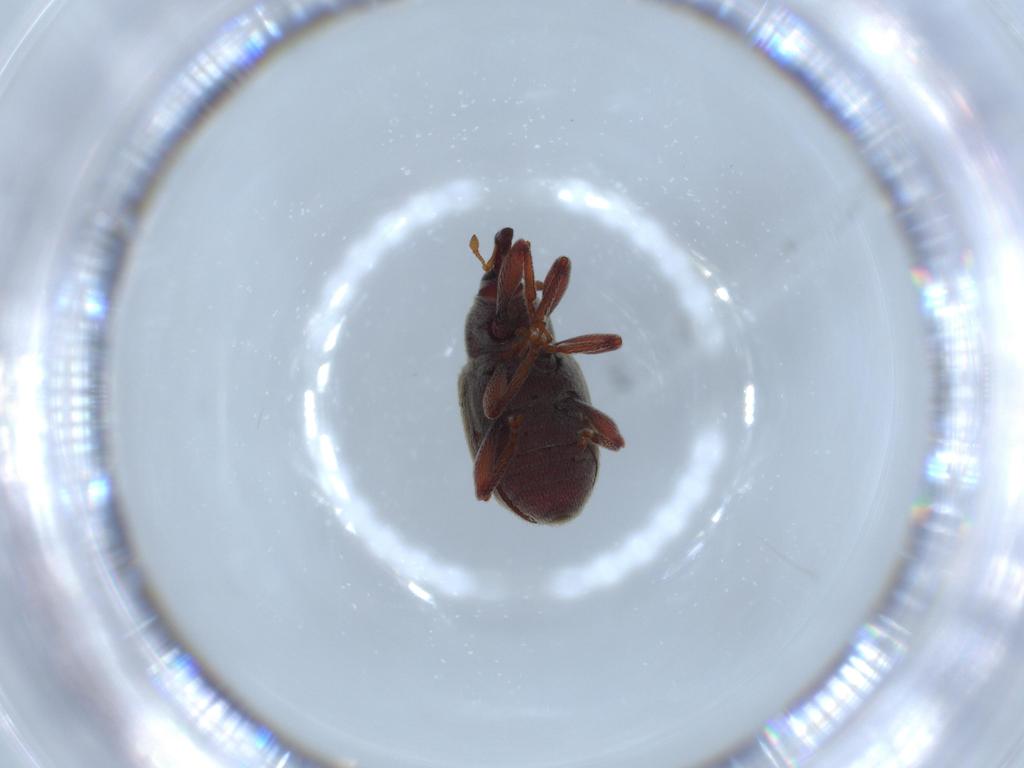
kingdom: Animalia
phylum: Arthropoda
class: Insecta
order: Coleoptera
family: Curculionidae
